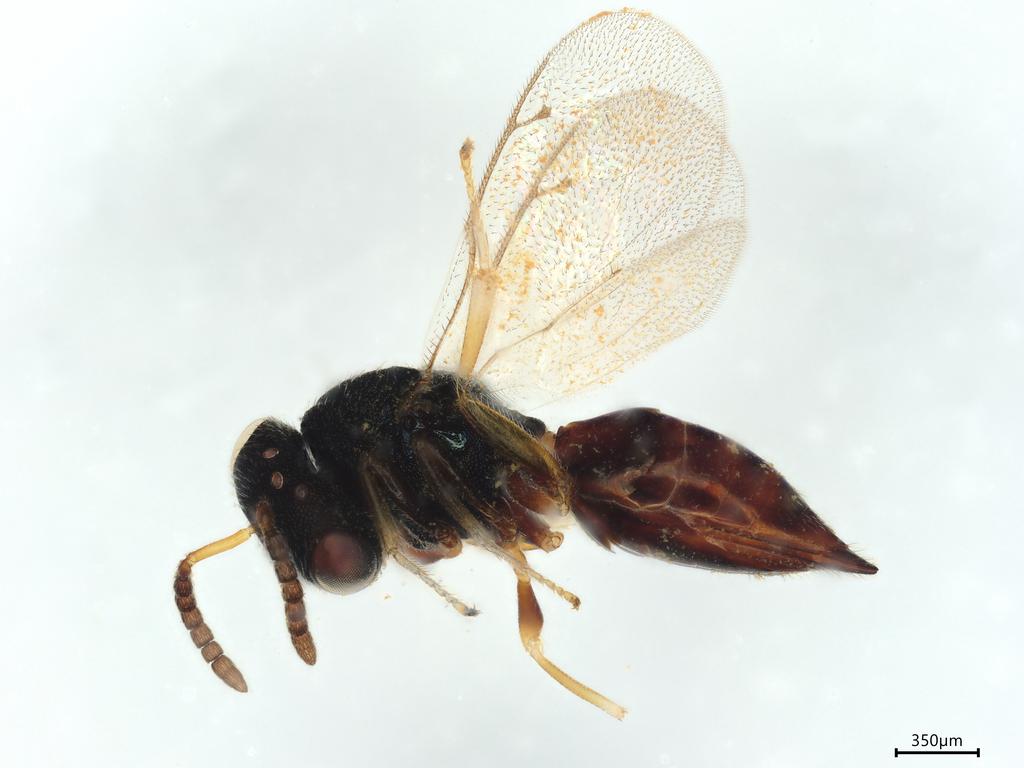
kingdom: Animalia
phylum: Arthropoda
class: Insecta
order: Hymenoptera
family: Pteromalidae
